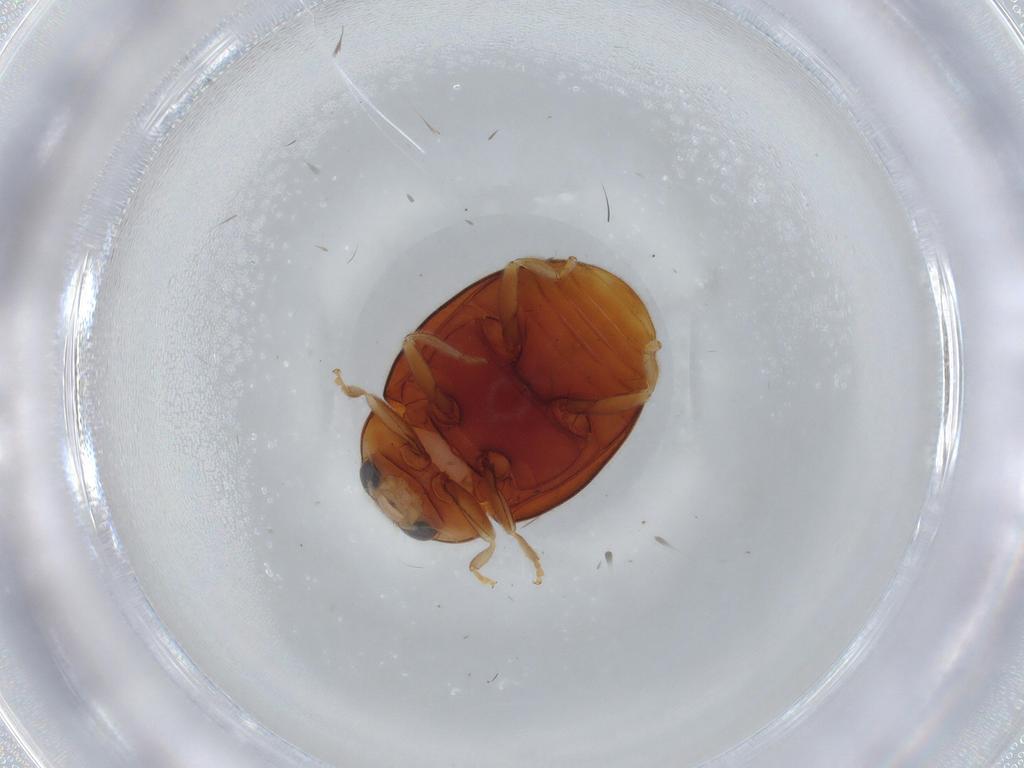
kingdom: Animalia
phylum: Arthropoda
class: Insecta
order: Coleoptera
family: Coccinellidae
